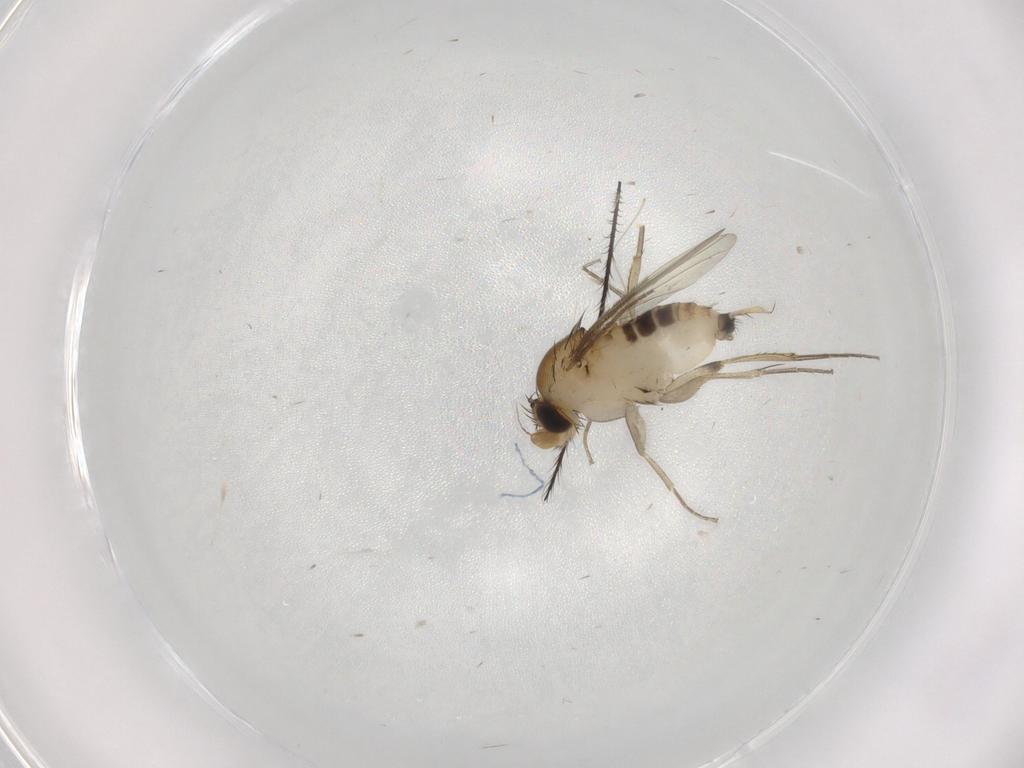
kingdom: Animalia
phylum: Arthropoda
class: Insecta
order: Diptera
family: Phoridae
